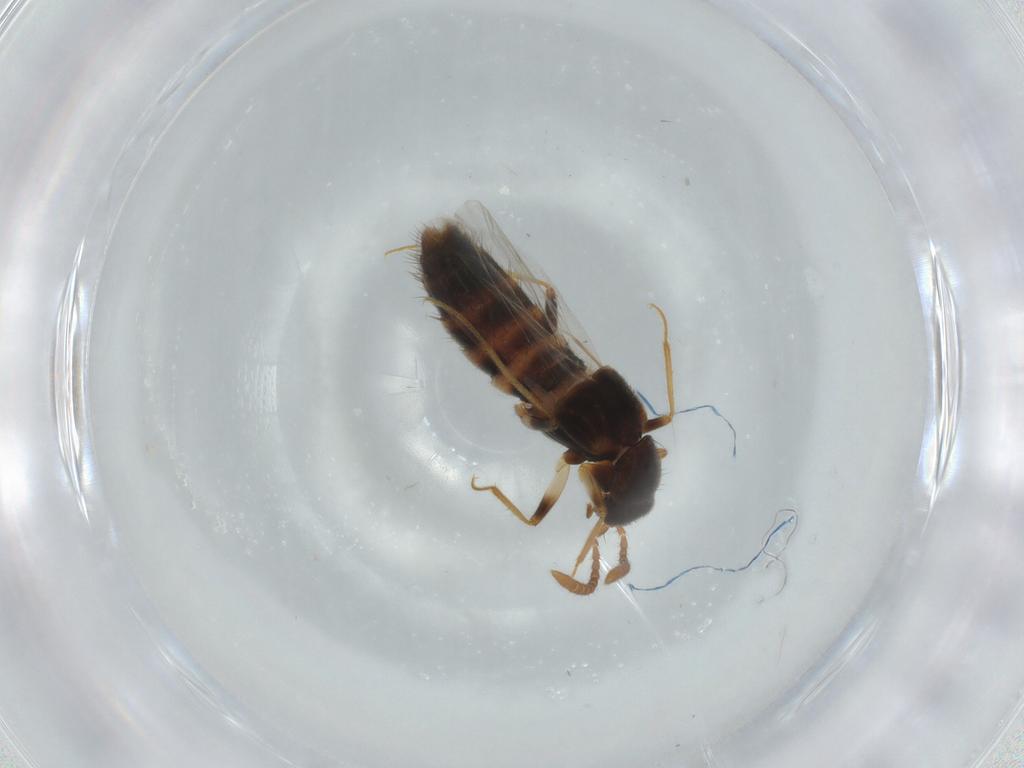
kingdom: Animalia
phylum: Arthropoda
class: Insecta
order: Coleoptera
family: Staphylinidae
